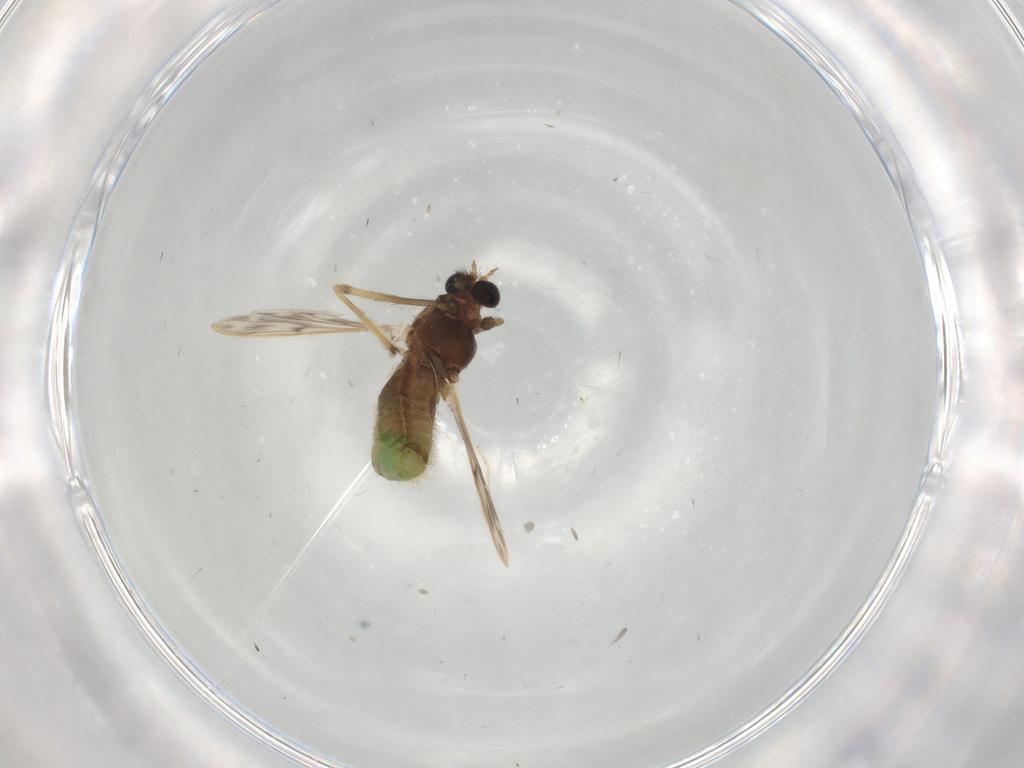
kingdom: Animalia
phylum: Arthropoda
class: Insecta
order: Diptera
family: Chironomidae
